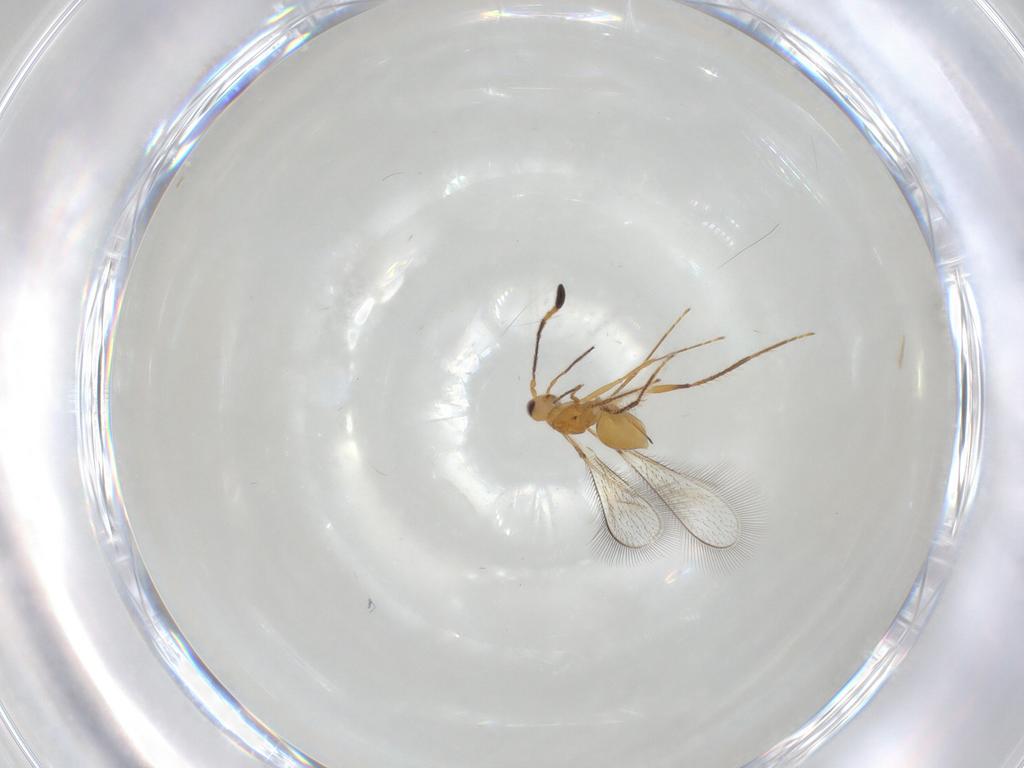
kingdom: Animalia
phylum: Arthropoda
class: Insecta
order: Hymenoptera
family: Mymaridae
